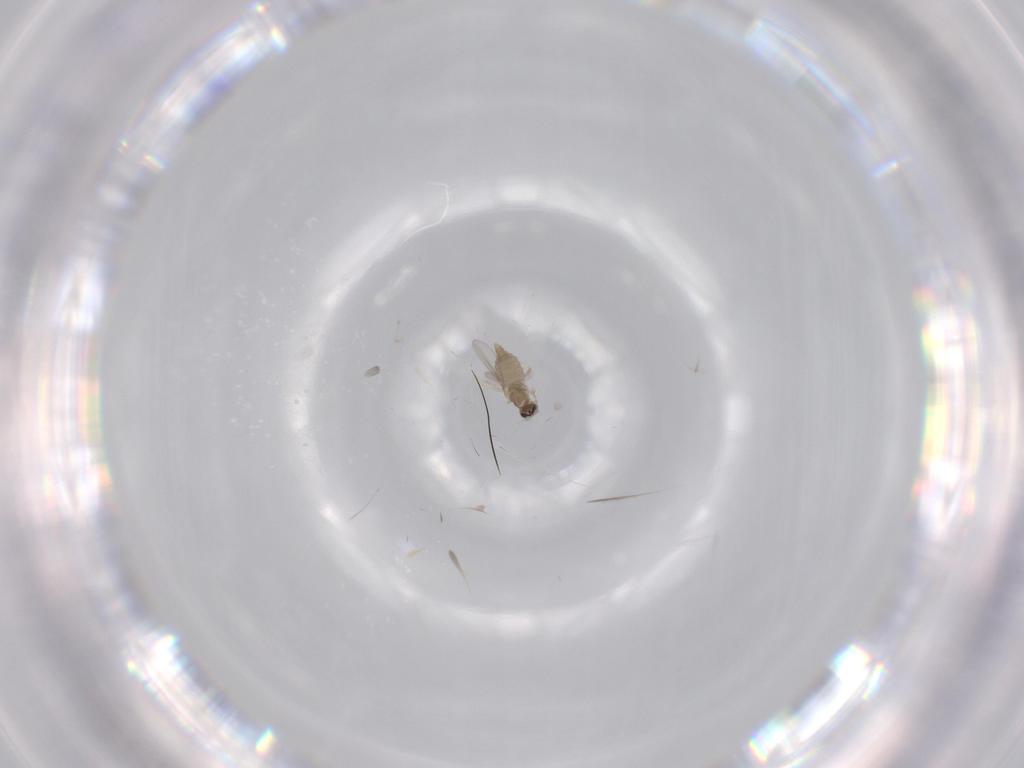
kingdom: Animalia
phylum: Arthropoda
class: Insecta
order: Diptera
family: Cecidomyiidae
